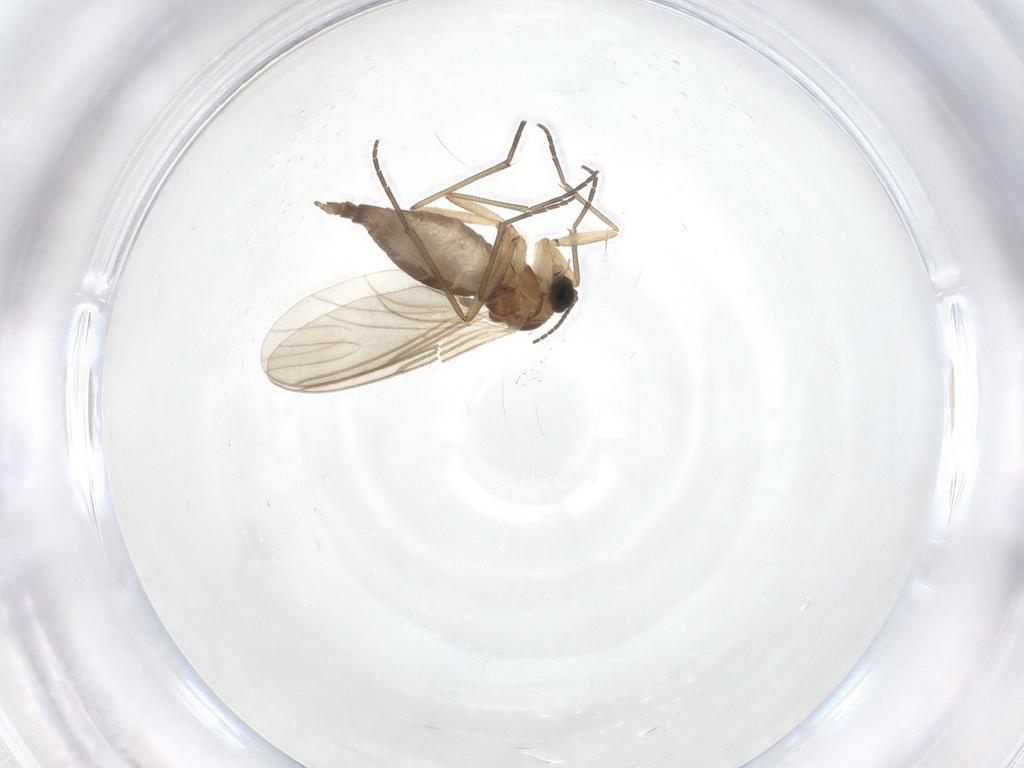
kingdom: Animalia
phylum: Arthropoda
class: Insecta
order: Diptera
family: Sciaridae
